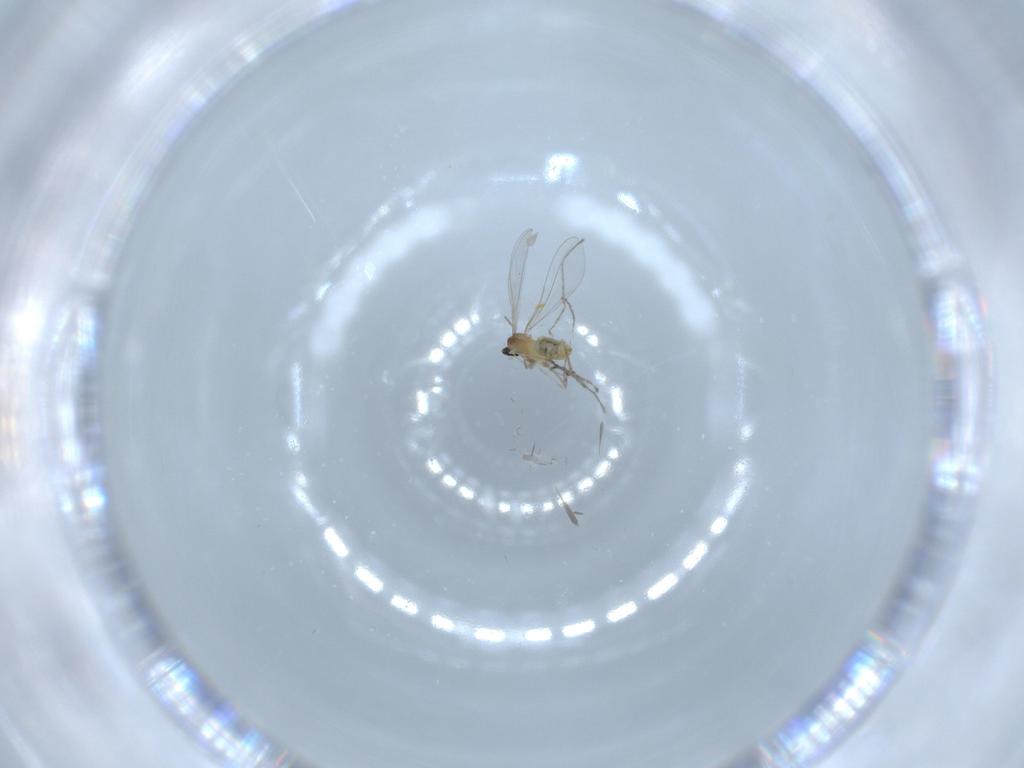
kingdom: Animalia
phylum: Arthropoda
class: Insecta
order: Diptera
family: Cecidomyiidae
